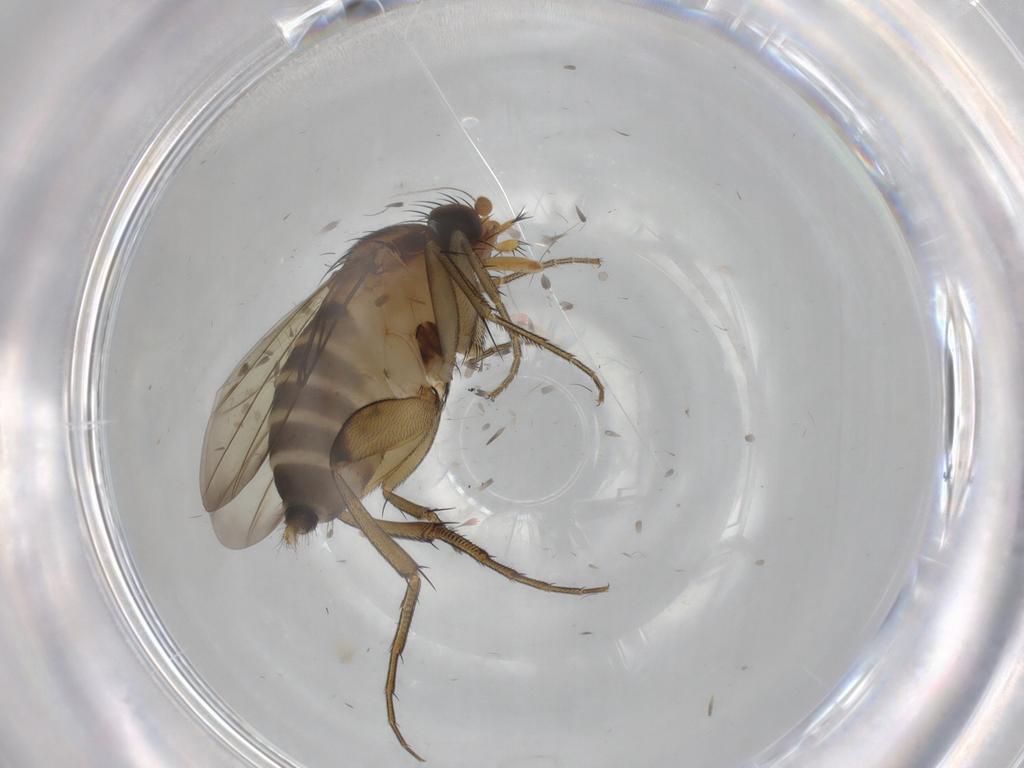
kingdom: Animalia
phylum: Arthropoda
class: Insecta
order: Diptera
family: Phoridae
